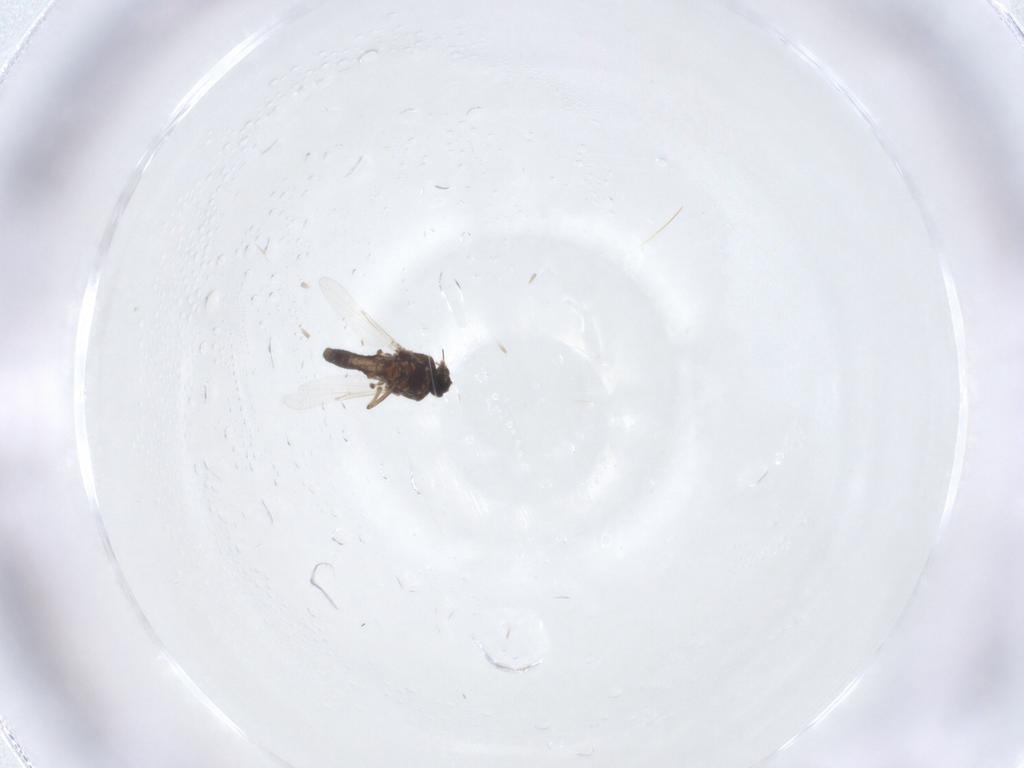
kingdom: Animalia
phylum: Arthropoda
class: Insecta
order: Diptera
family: Ceratopogonidae
